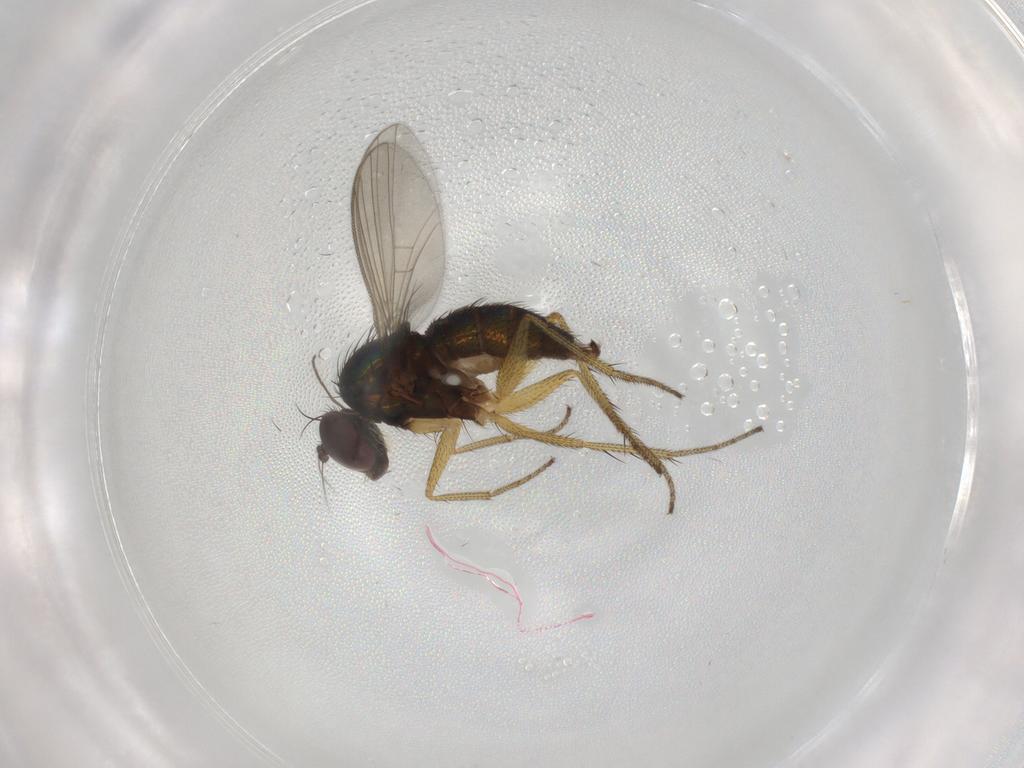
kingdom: Animalia
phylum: Arthropoda
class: Insecta
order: Diptera
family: Dolichopodidae
